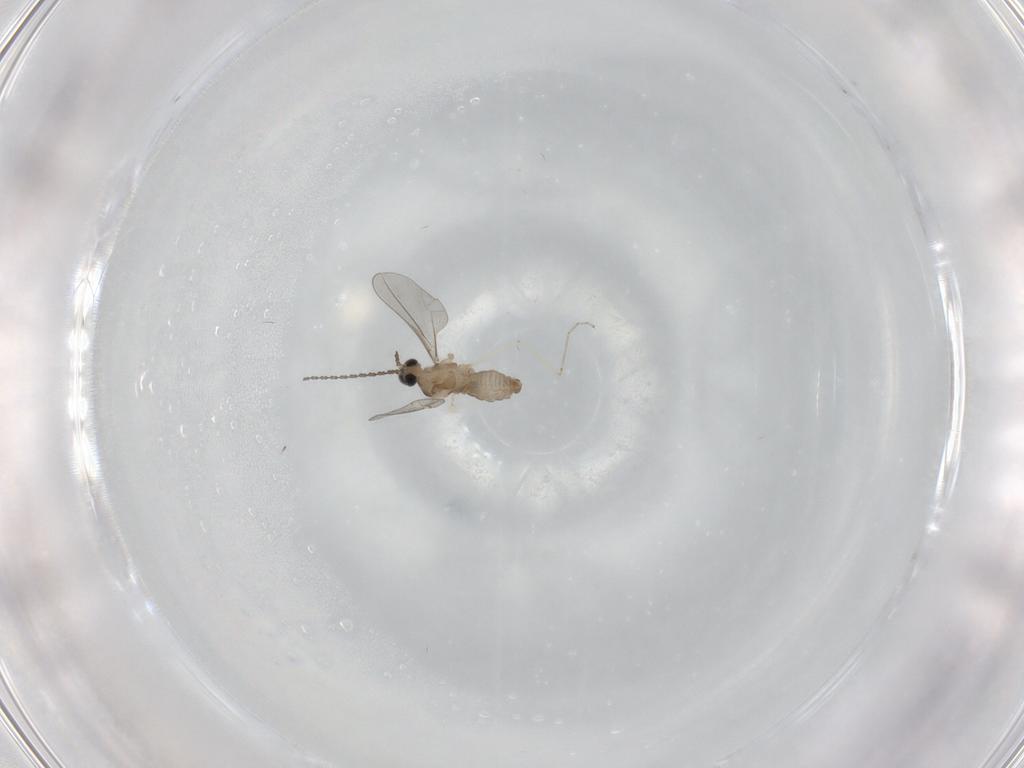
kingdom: Animalia
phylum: Arthropoda
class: Insecta
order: Diptera
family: Cecidomyiidae
